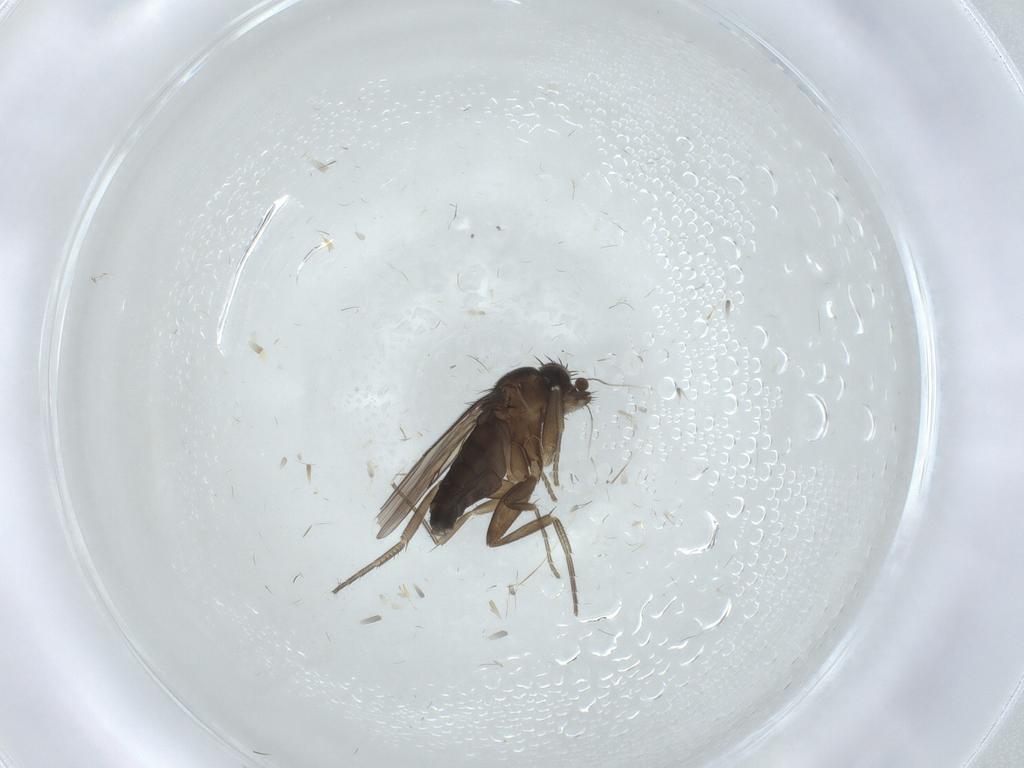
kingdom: Animalia
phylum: Arthropoda
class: Insecta
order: Diptera
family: Phoridae
